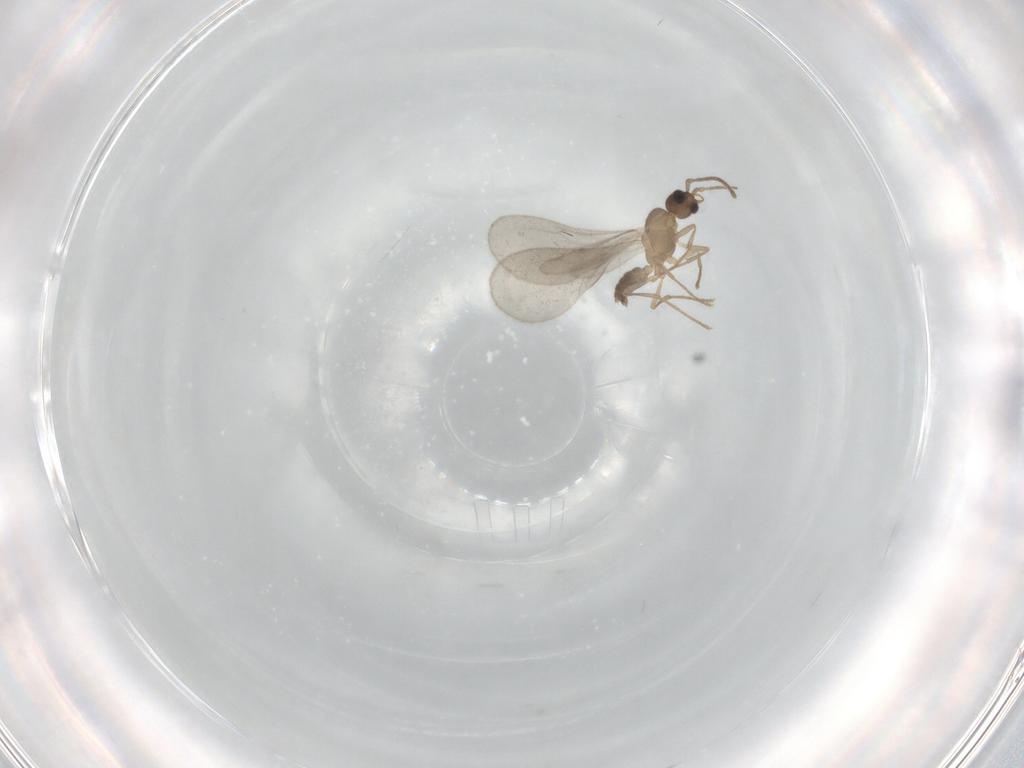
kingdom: Animalia
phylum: Arthropoda
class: Insecta
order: Hymenoptera
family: Formicidae
